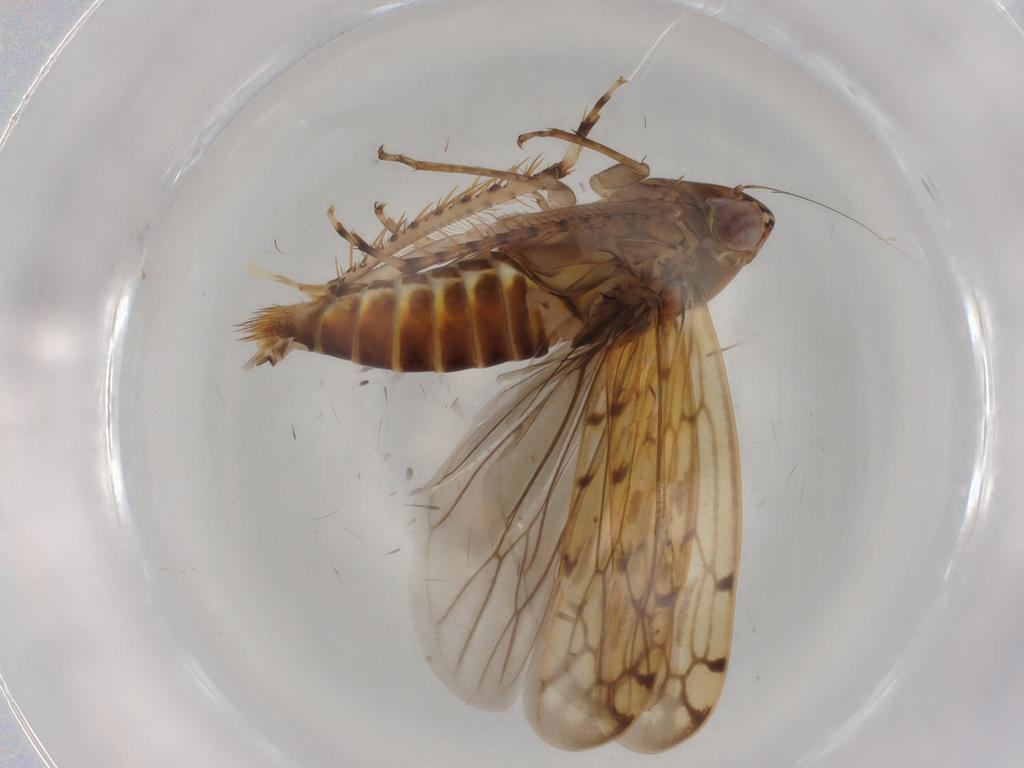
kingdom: Animalia
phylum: Arthropoda
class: Insecta
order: Hemiptera
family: Cicadellidae
